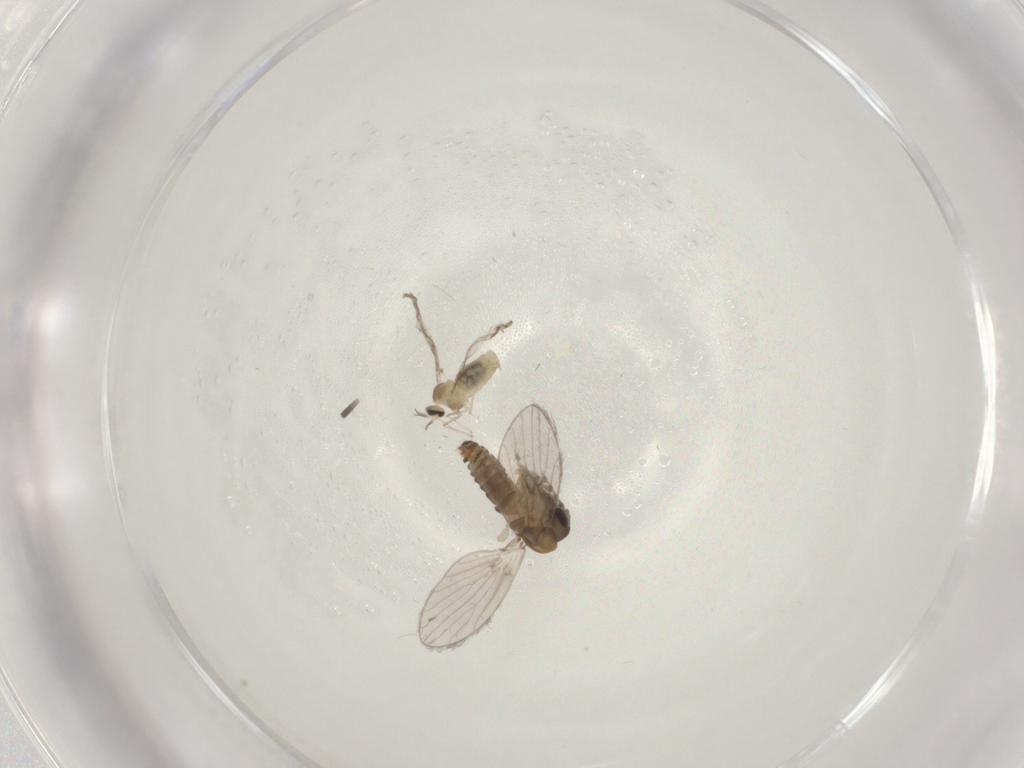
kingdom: Animalia
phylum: Arthropoda
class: Insecta
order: Diptera
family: Cecidomyiidae
